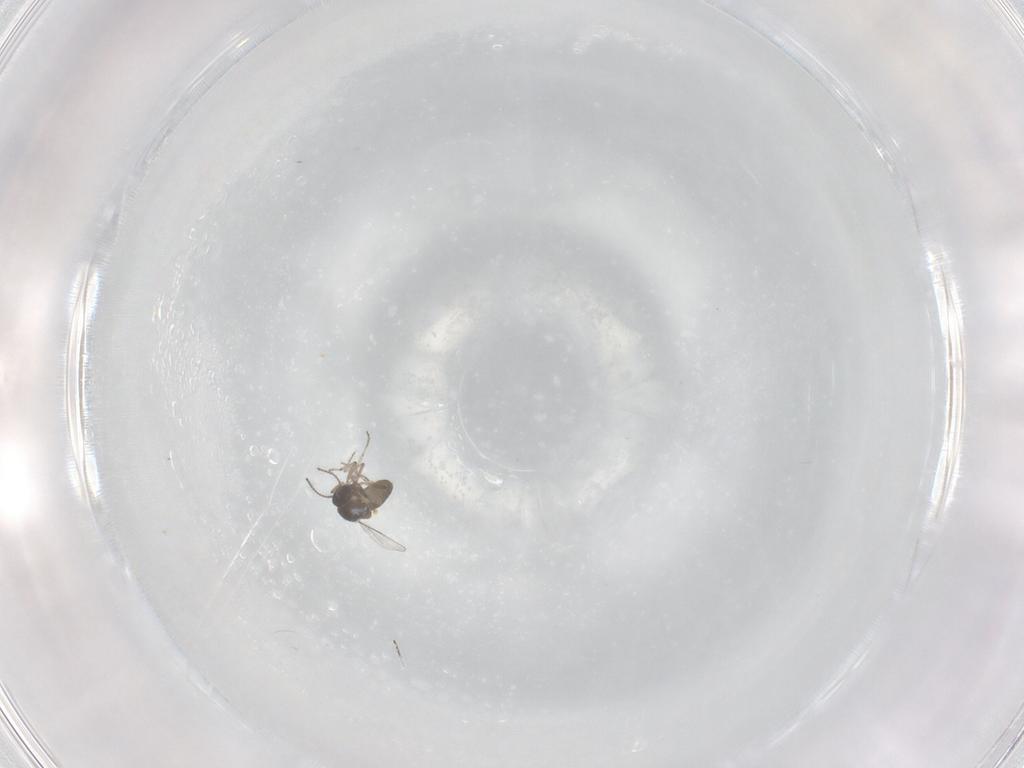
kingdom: Animalia
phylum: Arthropoda
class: Insecta
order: Diptera
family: Ceratopogonidae
